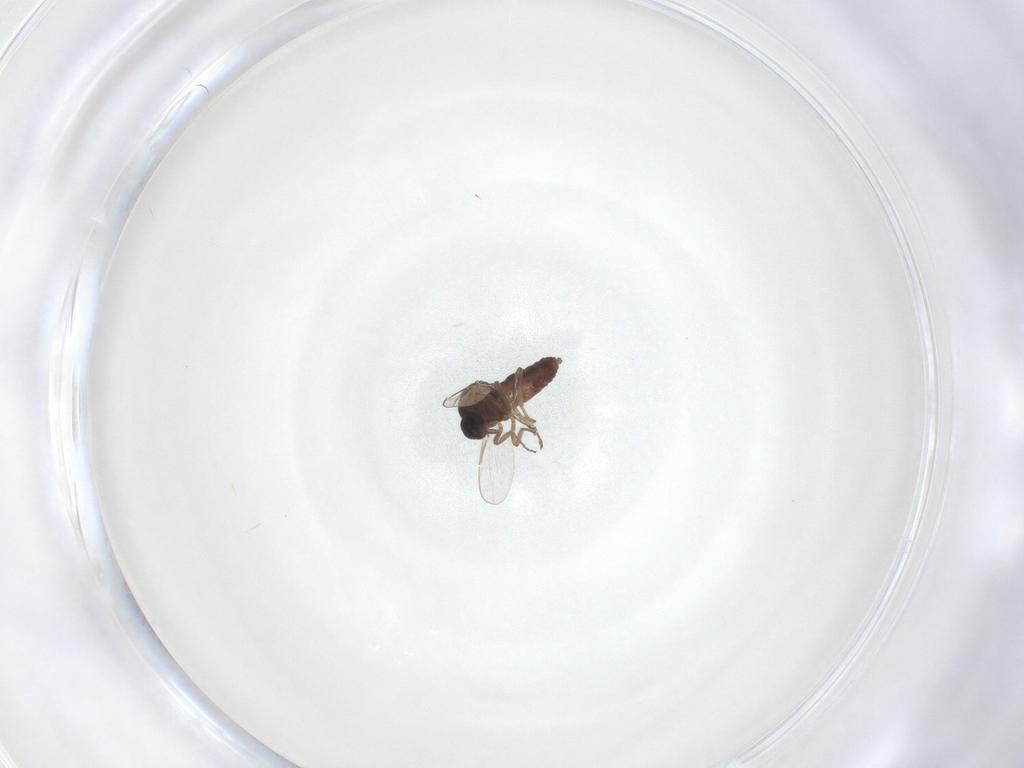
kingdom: Animalia
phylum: Arthropoda
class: Insecta
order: Diptera
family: Ceratopogonidae
